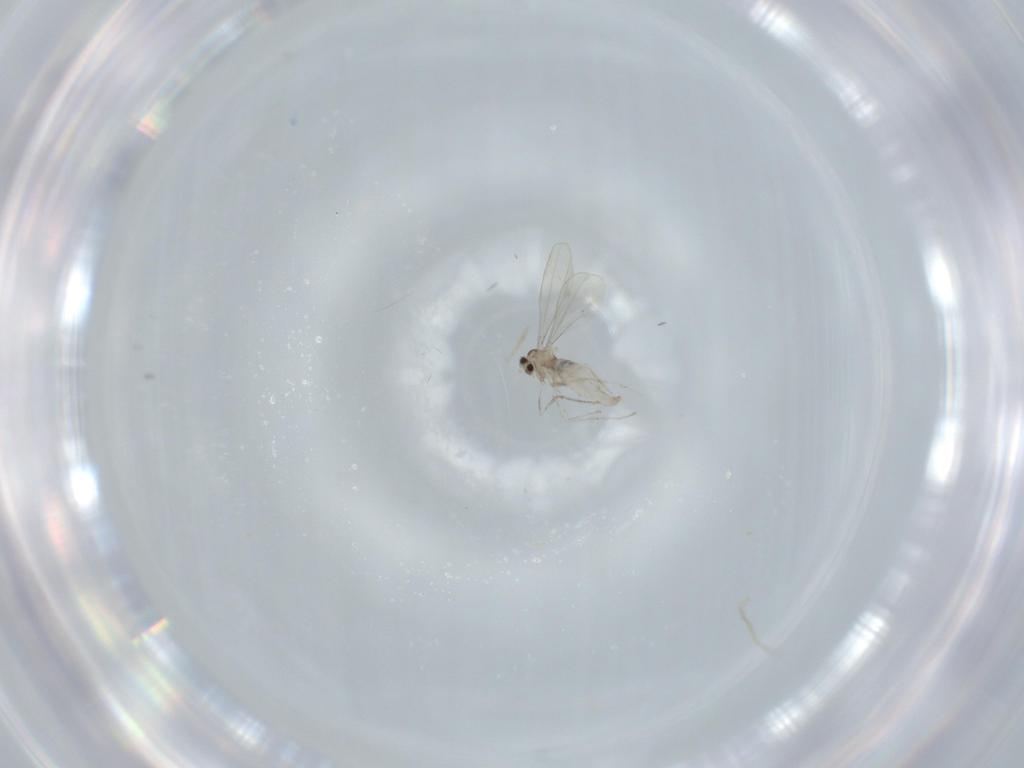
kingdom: Animalia
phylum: Arthropoda
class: Insecta
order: Diptera
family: Cecidomyiidae
